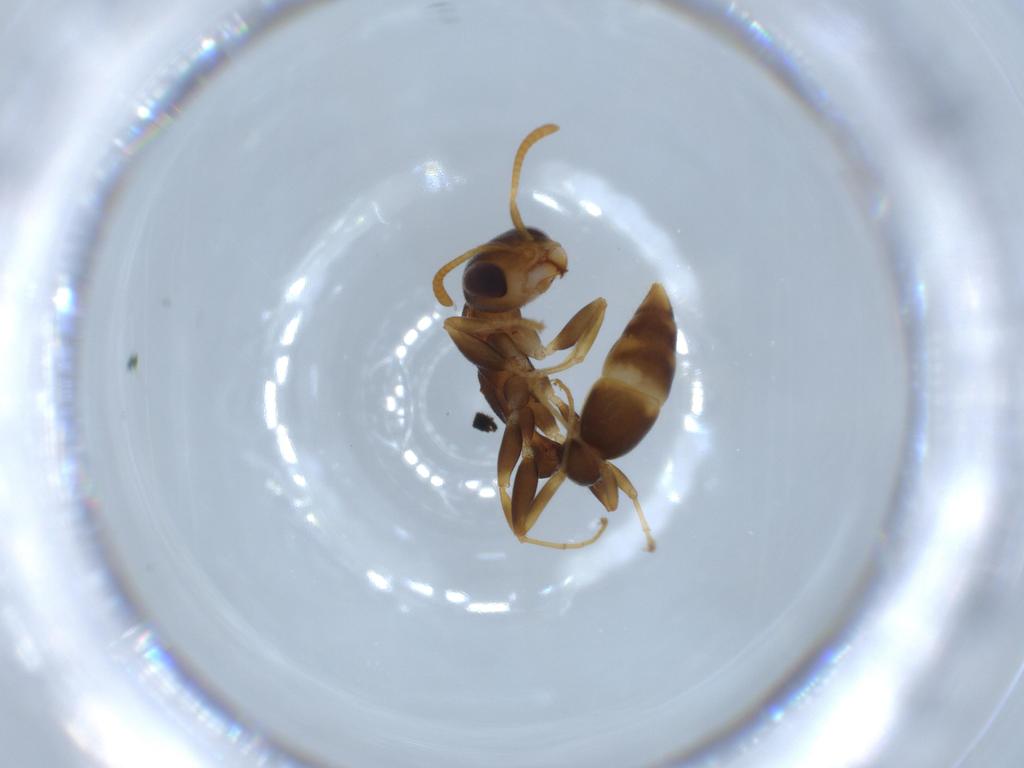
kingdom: Animalia
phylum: Arthropoda
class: Insecta
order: Hymenoptera
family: Formicidae
